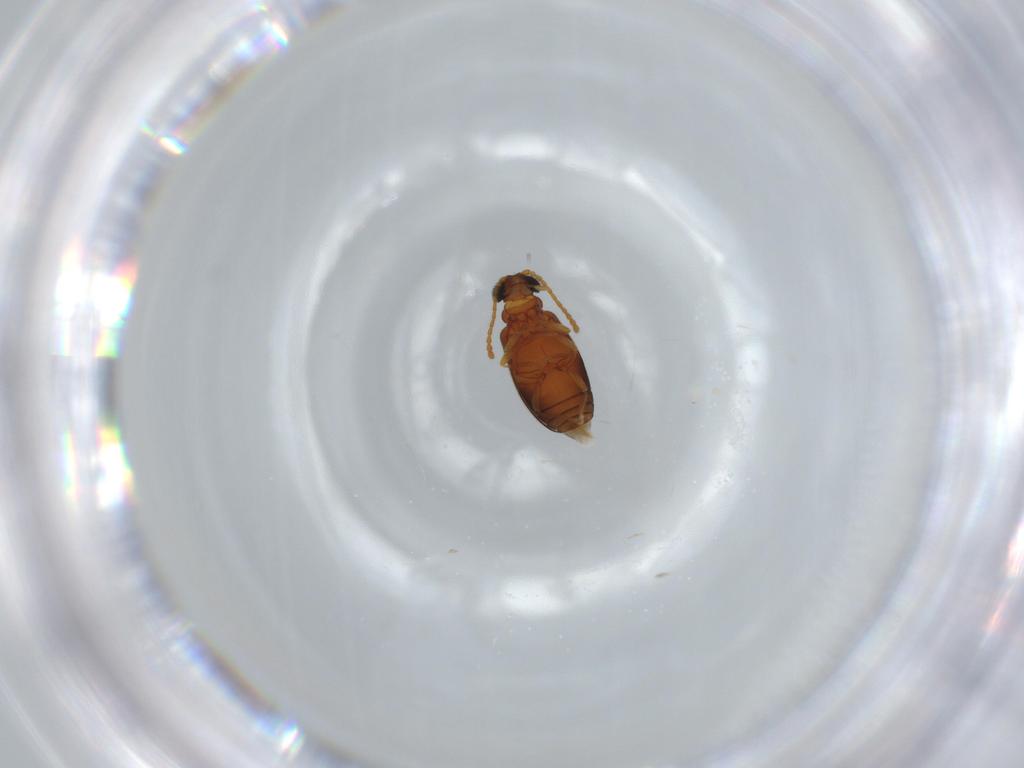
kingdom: Animalia
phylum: Arthropoda
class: Insecta
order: Coleoptera
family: Aderidae
